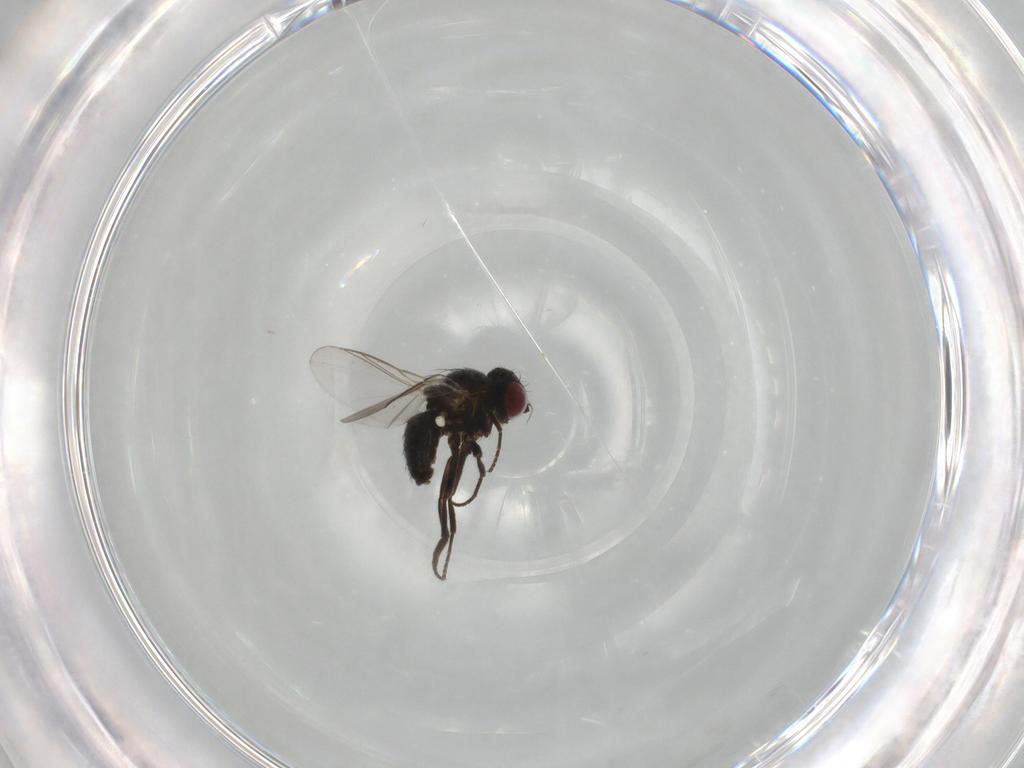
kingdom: Animalia
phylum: Arthropoda
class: Insecta
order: Diptera
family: Agromyzidae
